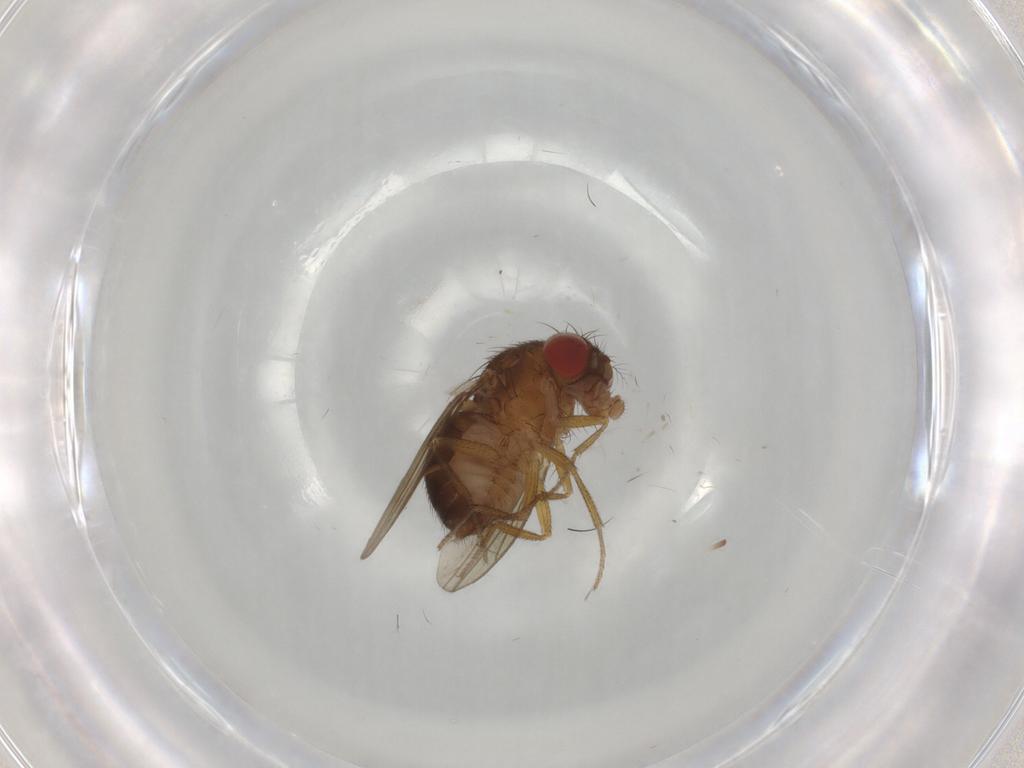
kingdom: Animalia
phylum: Arthropoda
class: Insecta
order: Diptera
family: Drosophilidae
